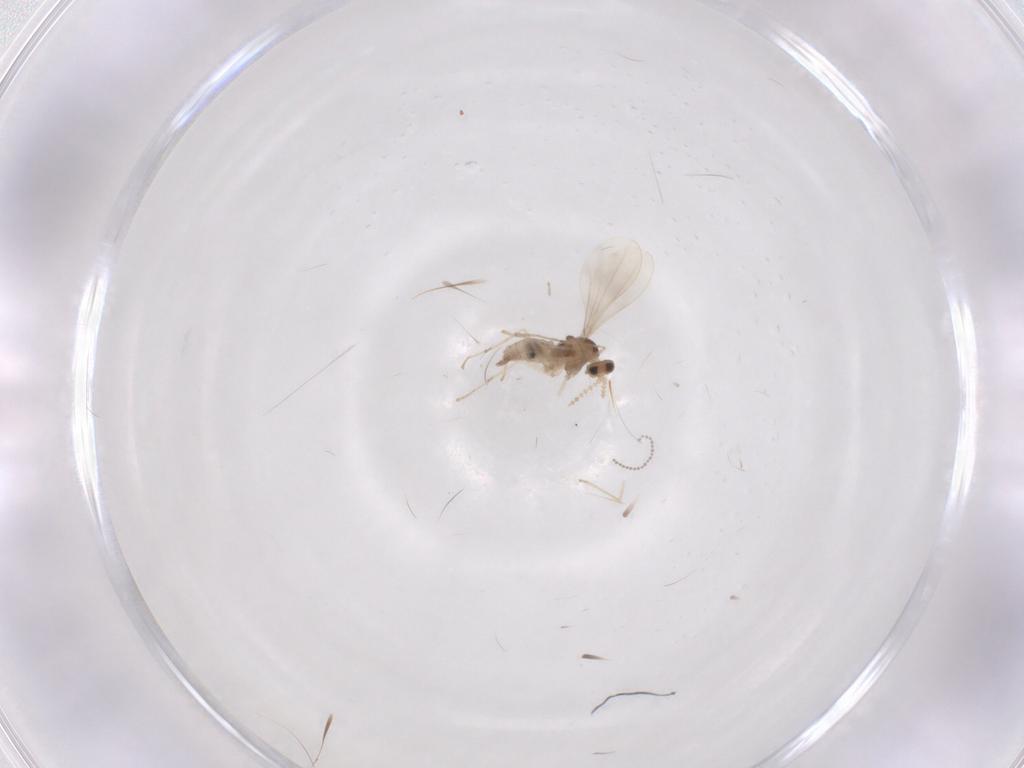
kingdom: Animalia
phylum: Arthropoda
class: Insecta
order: Diptera
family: Cecidomyiidae
